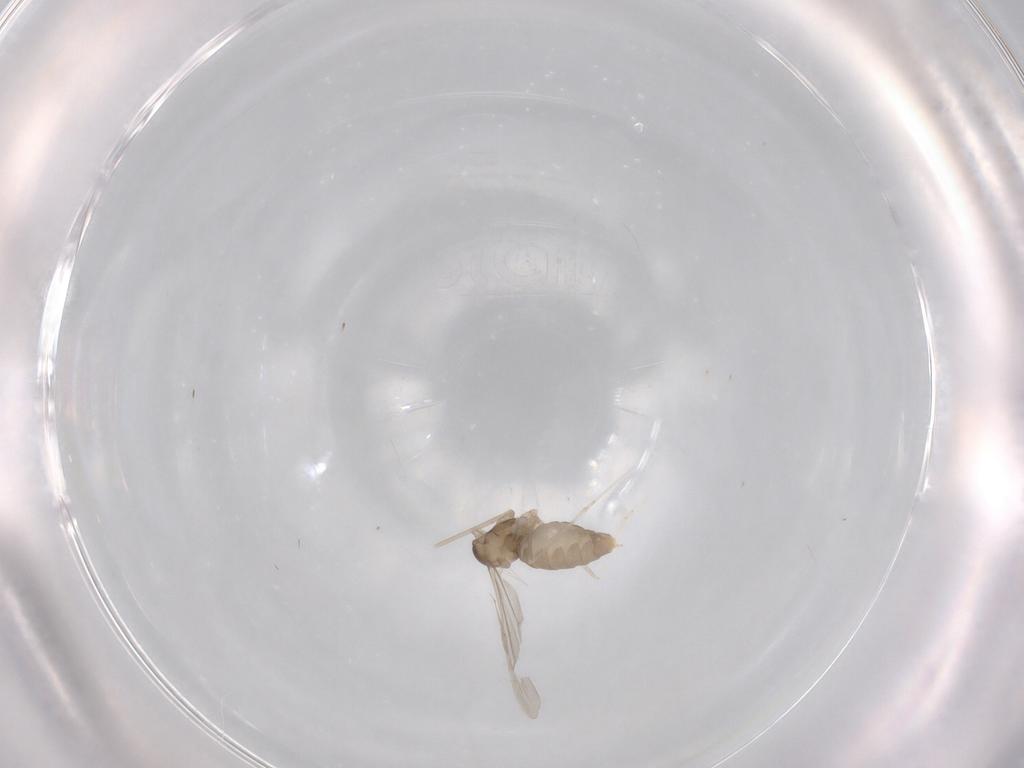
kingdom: Animalia
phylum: Arthropoda
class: Insecta
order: Diptera
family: Cecidomyiidae
